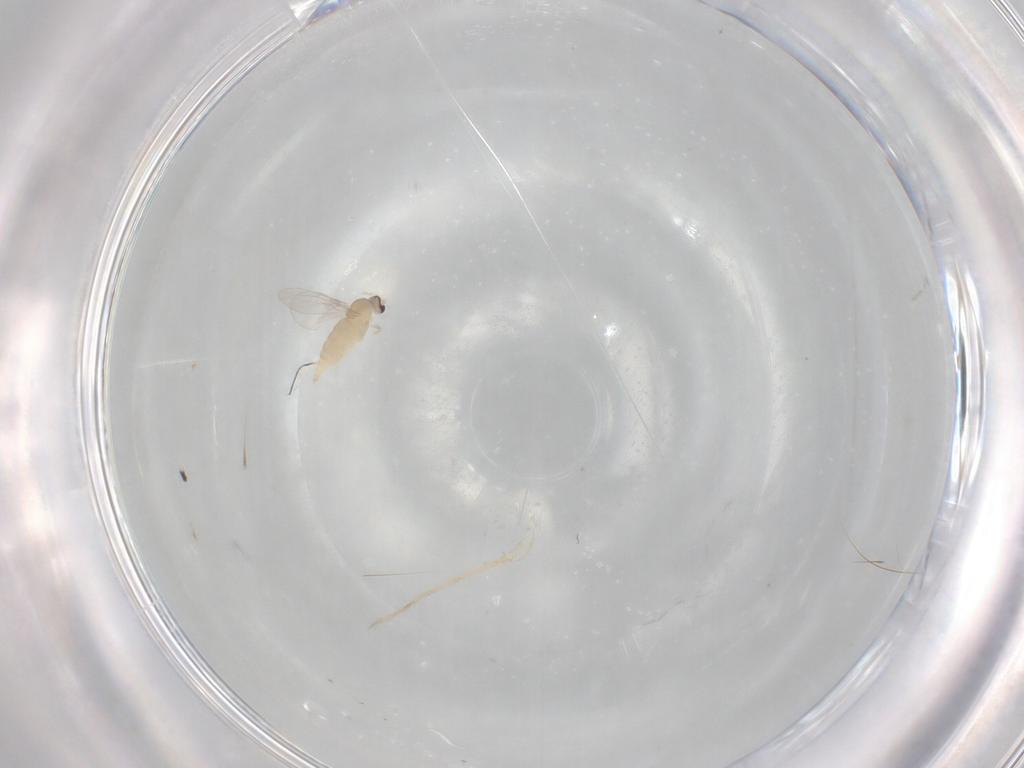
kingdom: Animalia
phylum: Arthropoda
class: Insecta
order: Diptera
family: Cecidomyiidae
